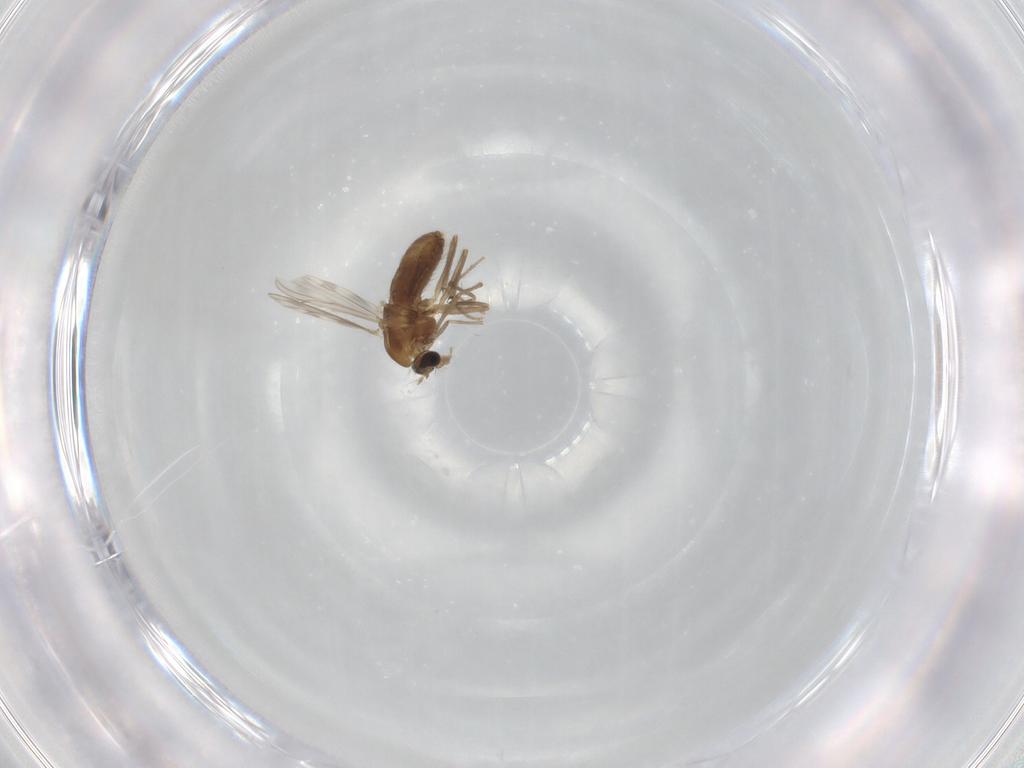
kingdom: Animalia
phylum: Arthropoda
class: Insecta
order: Diptera
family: Chironomidae
